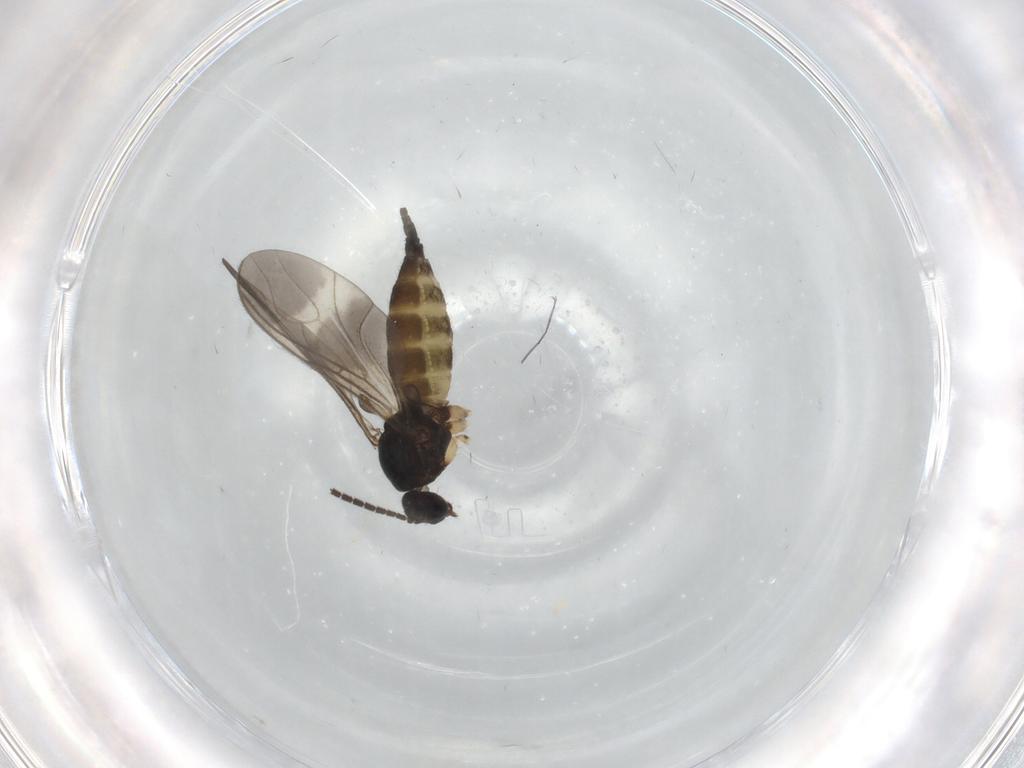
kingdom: Animalia
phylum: Arthropoda
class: Insecta
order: Diptera
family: Sciaridae
